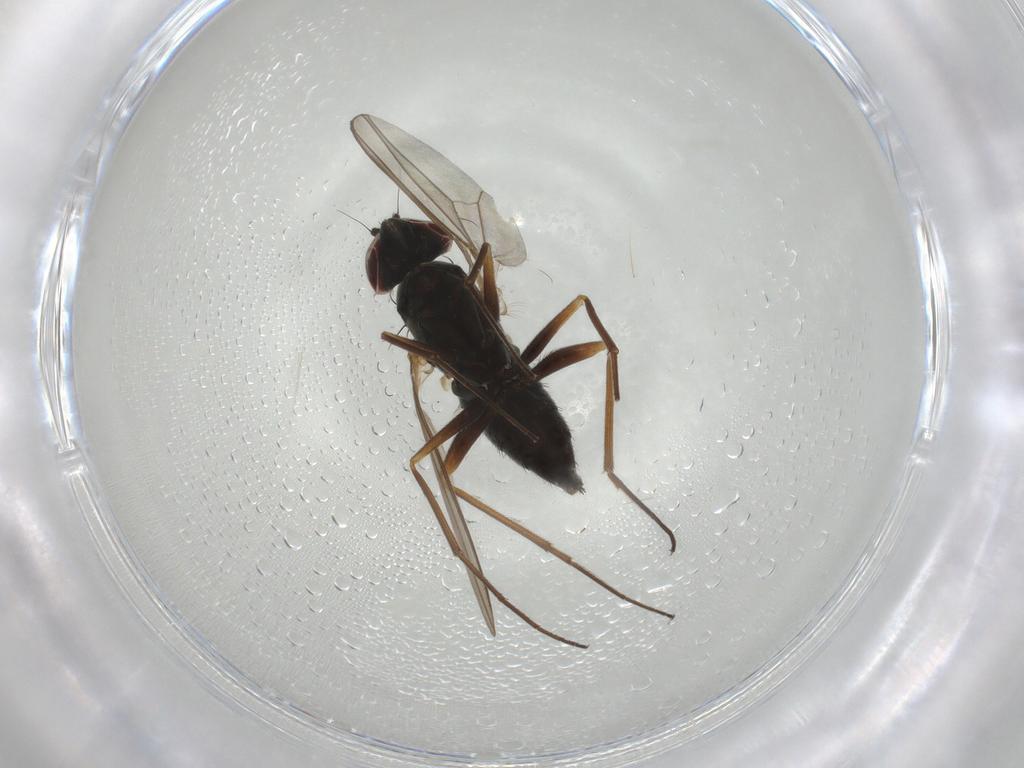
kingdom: Animalia
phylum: Arthropoda
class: Insecta
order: Diptera
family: Dolichopodidae
